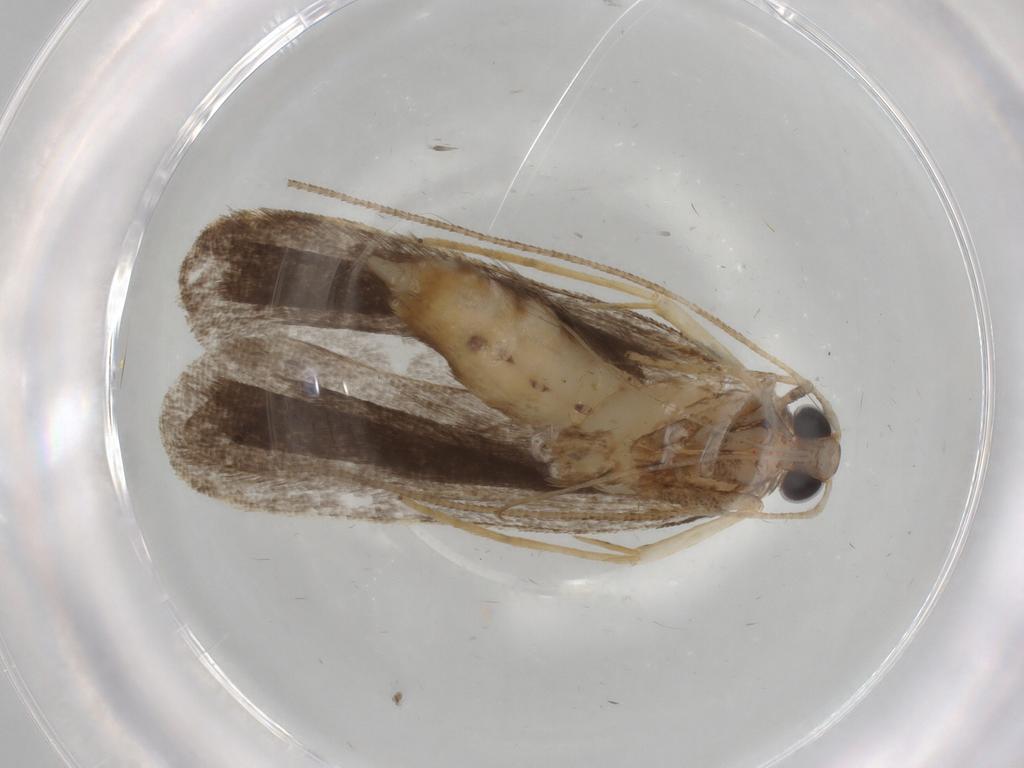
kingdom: Animalia
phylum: Arthropoda
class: Insecta
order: Lepidoptera
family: Cosmopterigidae
